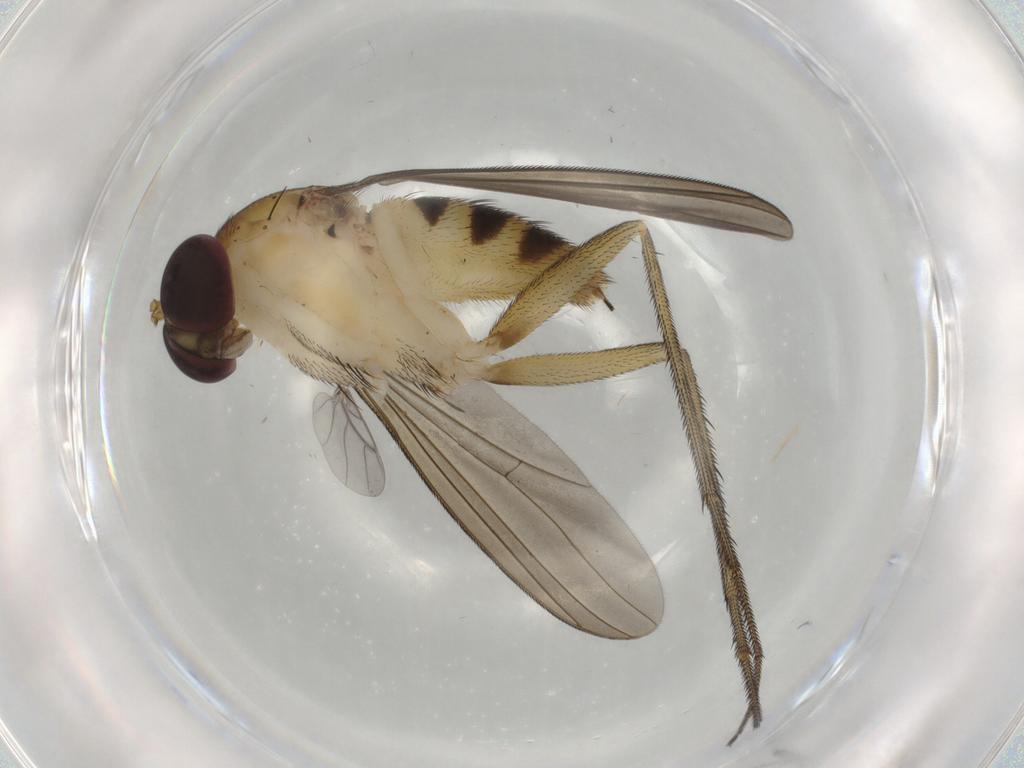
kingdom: Animalia
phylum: Arthropoda
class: Insecta
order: Diptera
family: Dolichopodidae
